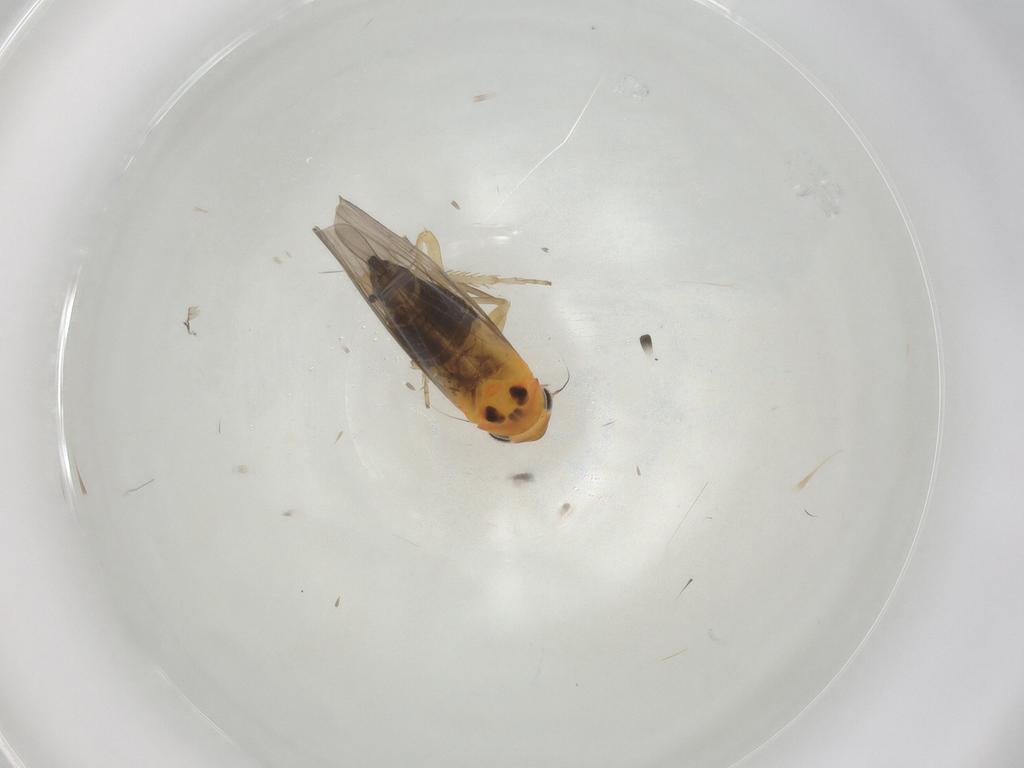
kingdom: Animalia
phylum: Arthropoda
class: Insecta
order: Hemiptera
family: Cicadellidae
